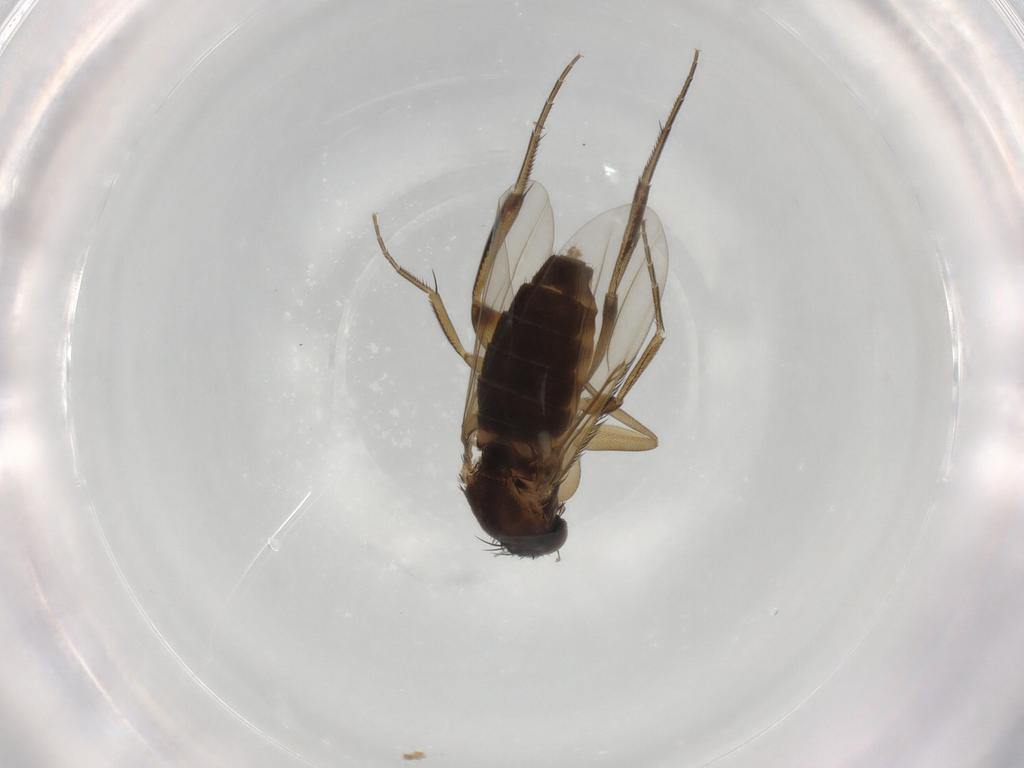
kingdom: Animalia
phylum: Arthropoda
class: Insecta
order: Diptera
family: Phoridae
